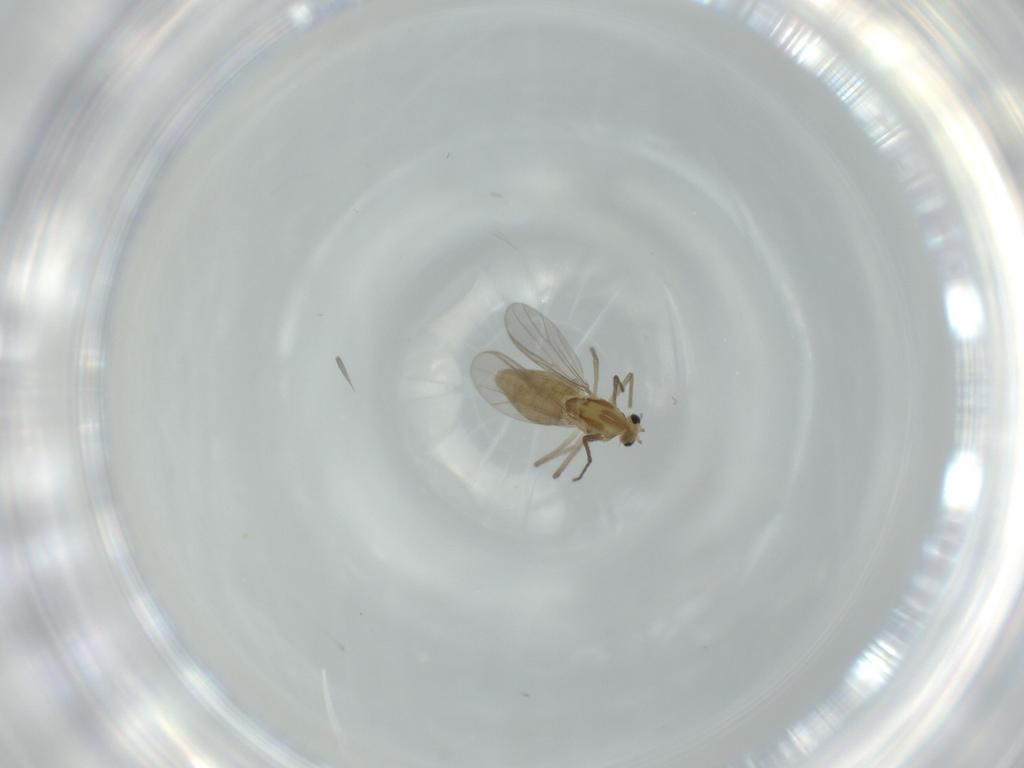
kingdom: Animalia
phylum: Arthropoda
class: Insecta
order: Diptera
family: Chironomidae
